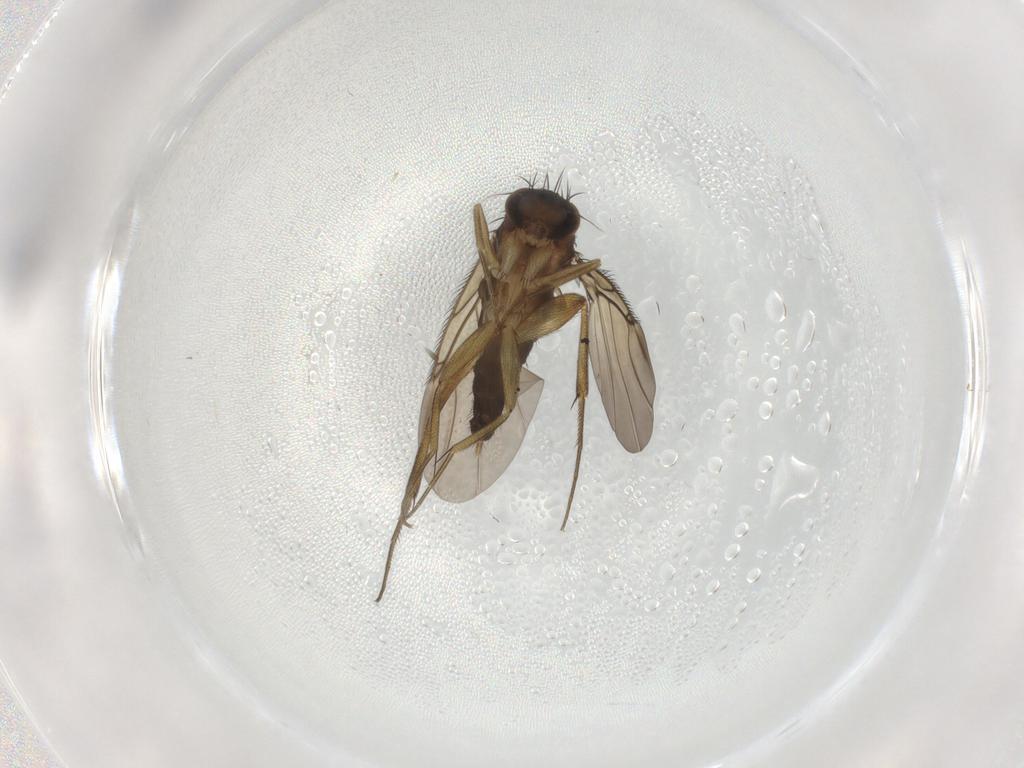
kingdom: Animalia
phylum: Arthropoda
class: Insecta
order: Diptera
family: Phoridae
